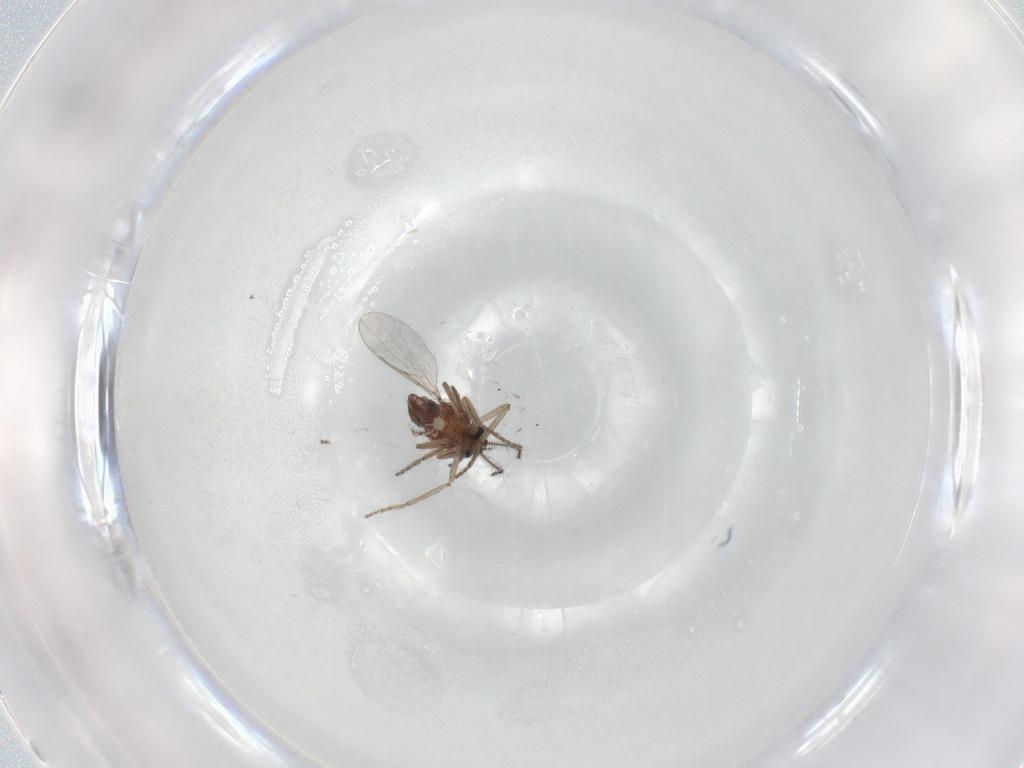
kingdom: Animalia
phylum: Arthropoda
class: Insecta
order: Diptera
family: Ceratopogonidae
